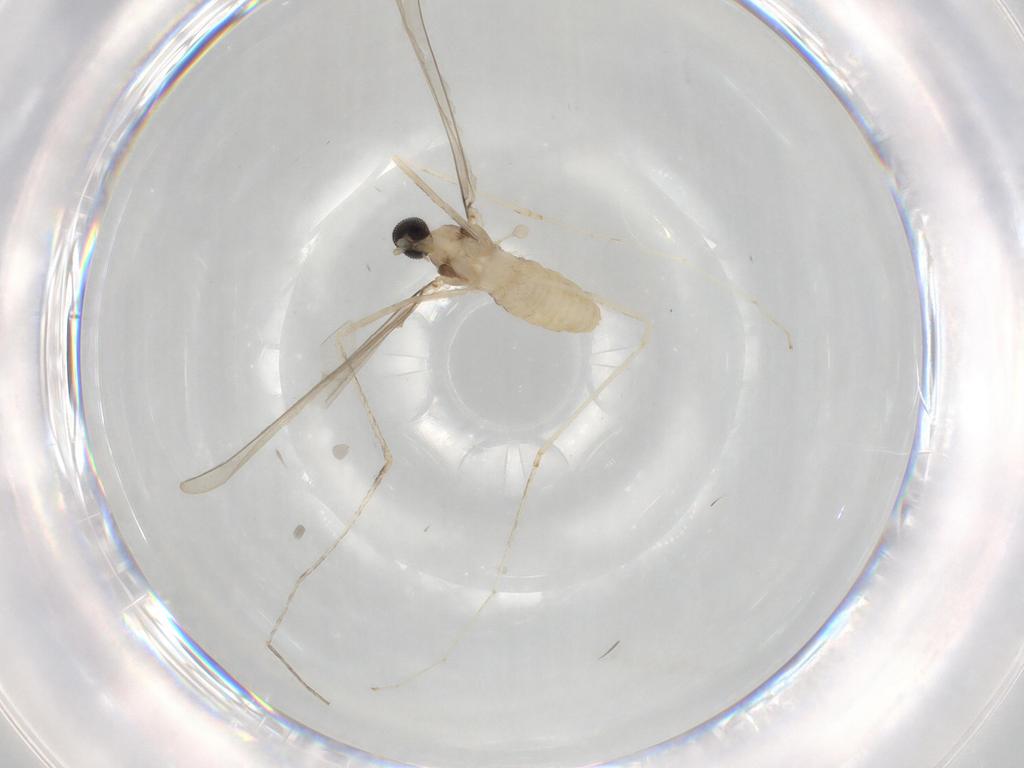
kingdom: Animalia
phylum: Arthropoda
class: Insecta
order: Diptera
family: Cecidomyiidae
